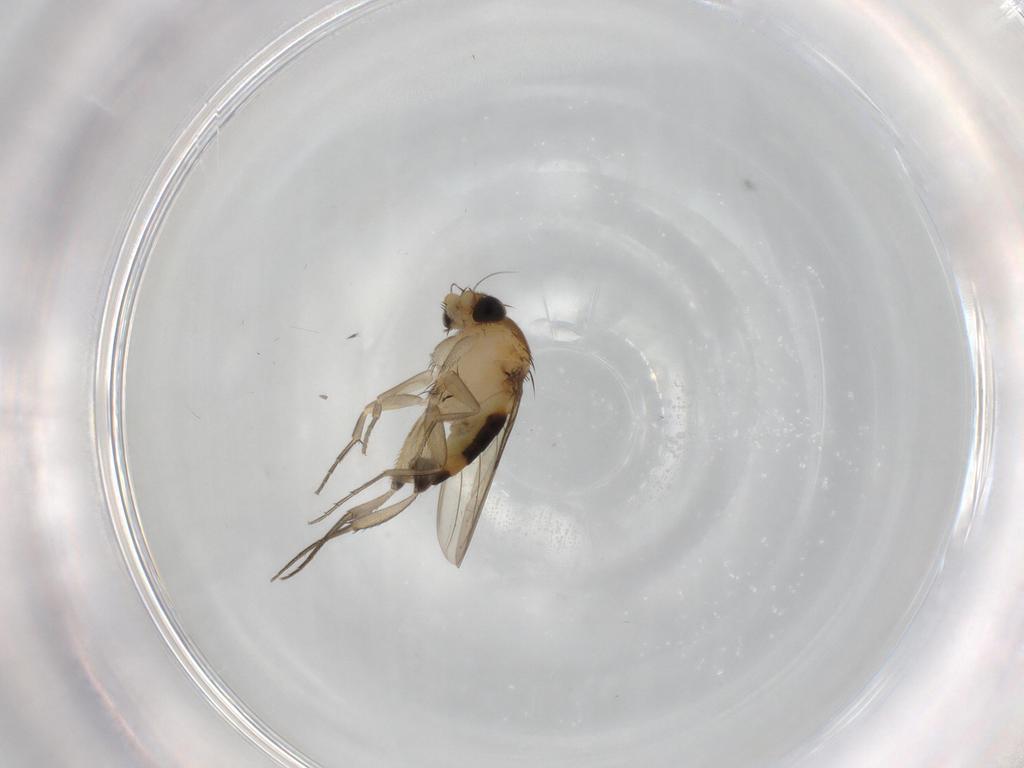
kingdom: Animalia
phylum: Arthropoda
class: Insecta
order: Diptera
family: Phoridae
